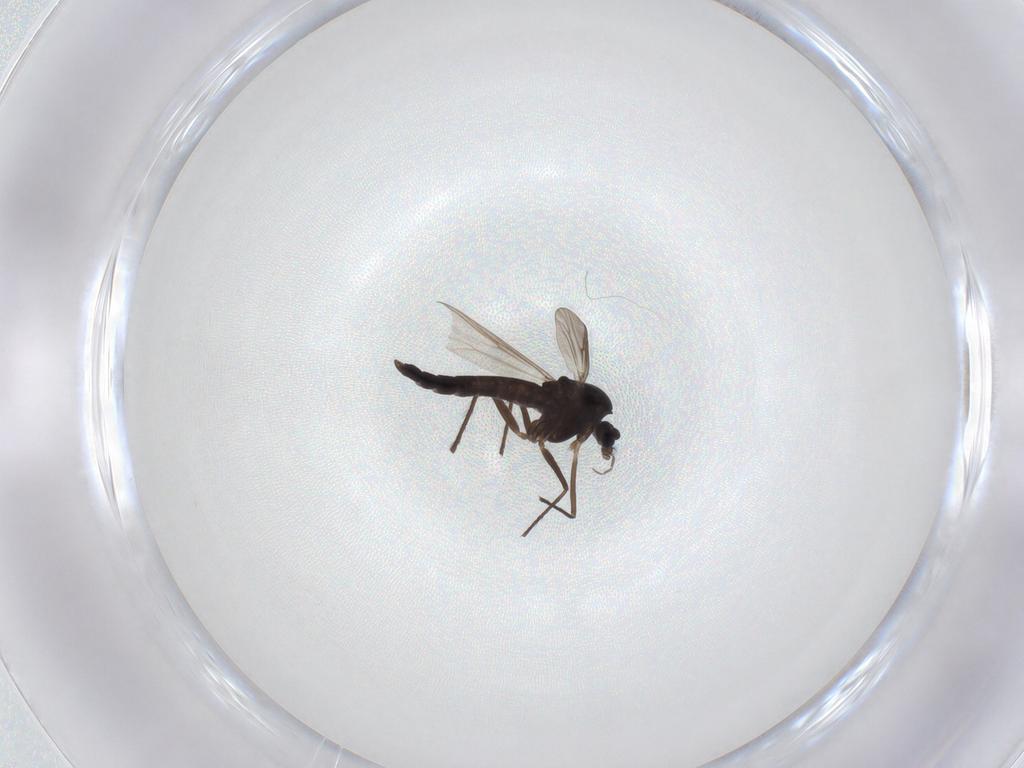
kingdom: Animalia
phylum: Arthropoda
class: Insecta
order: Diptera
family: Chironomidae
